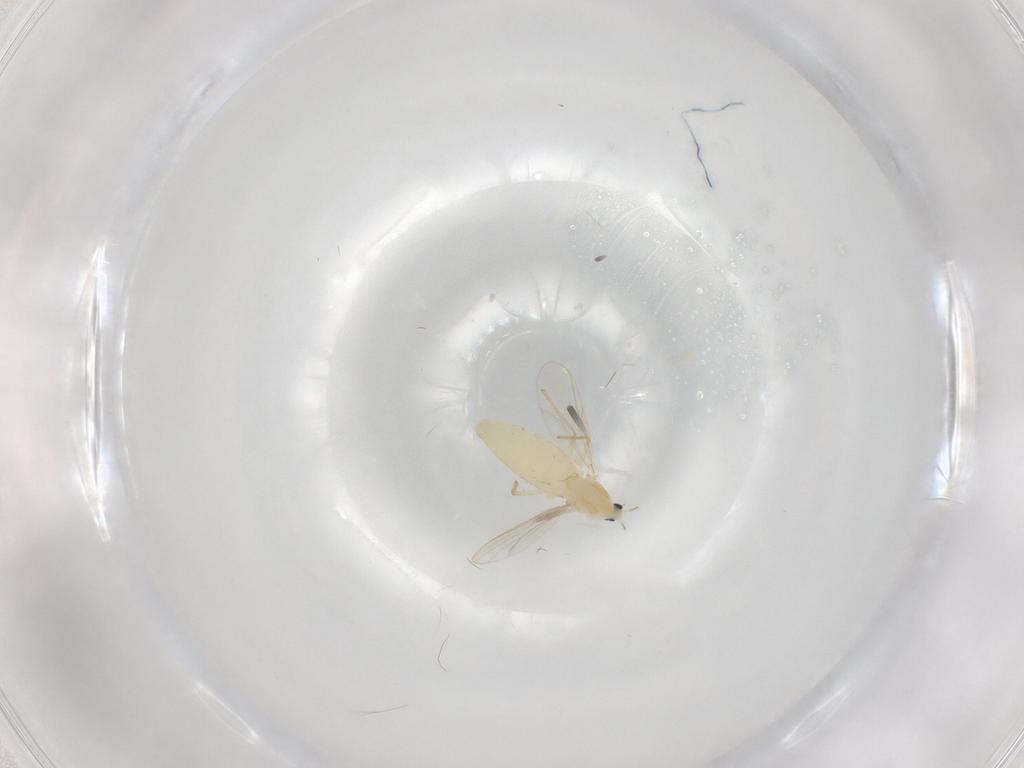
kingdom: Animalia
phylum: Arthropoda
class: Insecta
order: Diptera
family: Chironomidae
